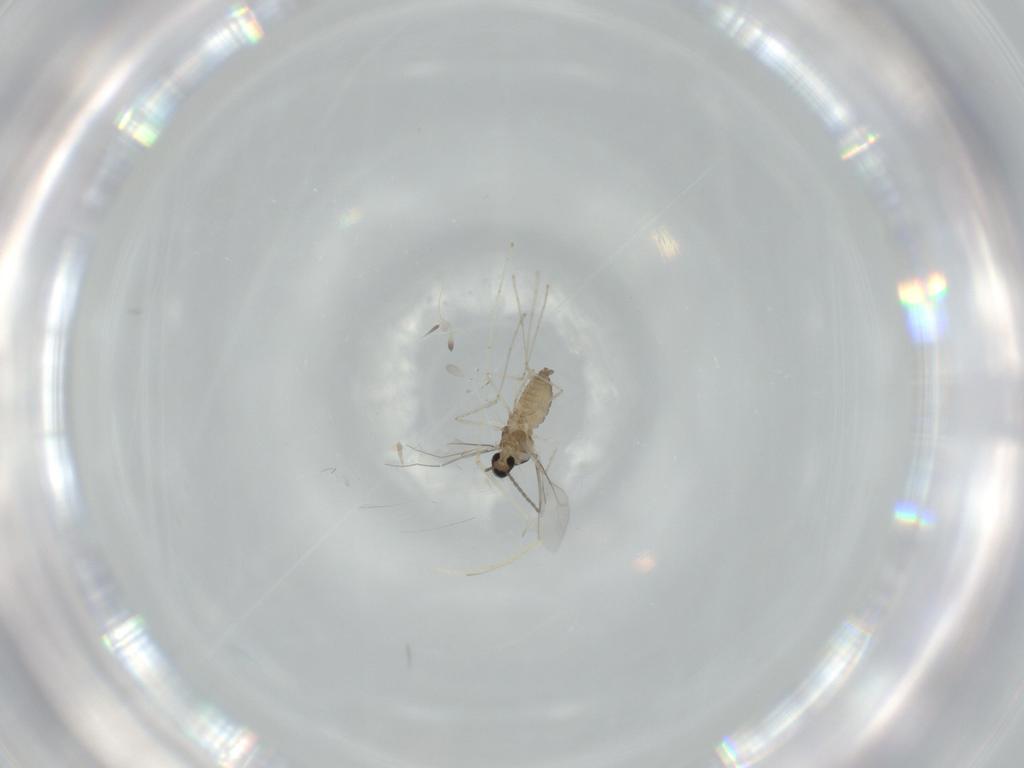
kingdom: Animalia
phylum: Arthropoda
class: Insecta
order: Diptera
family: Cecidomyiidae
